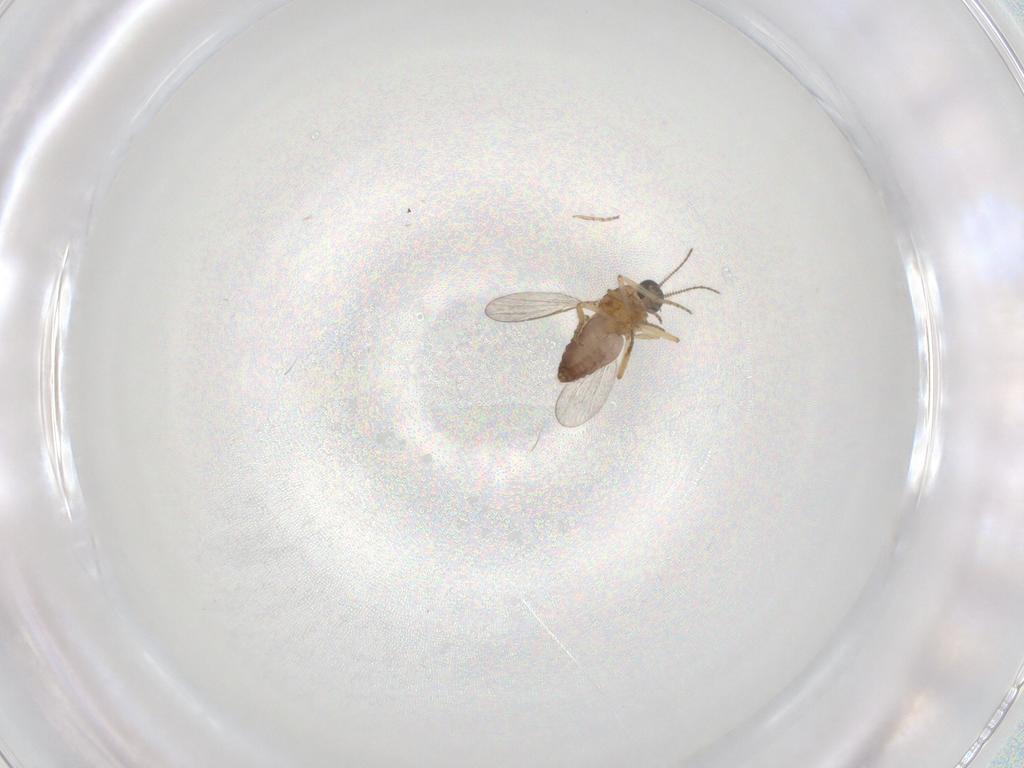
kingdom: Animalia
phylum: Arthropoda
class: Insecta
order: Diptera
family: Ceratopogonidae
